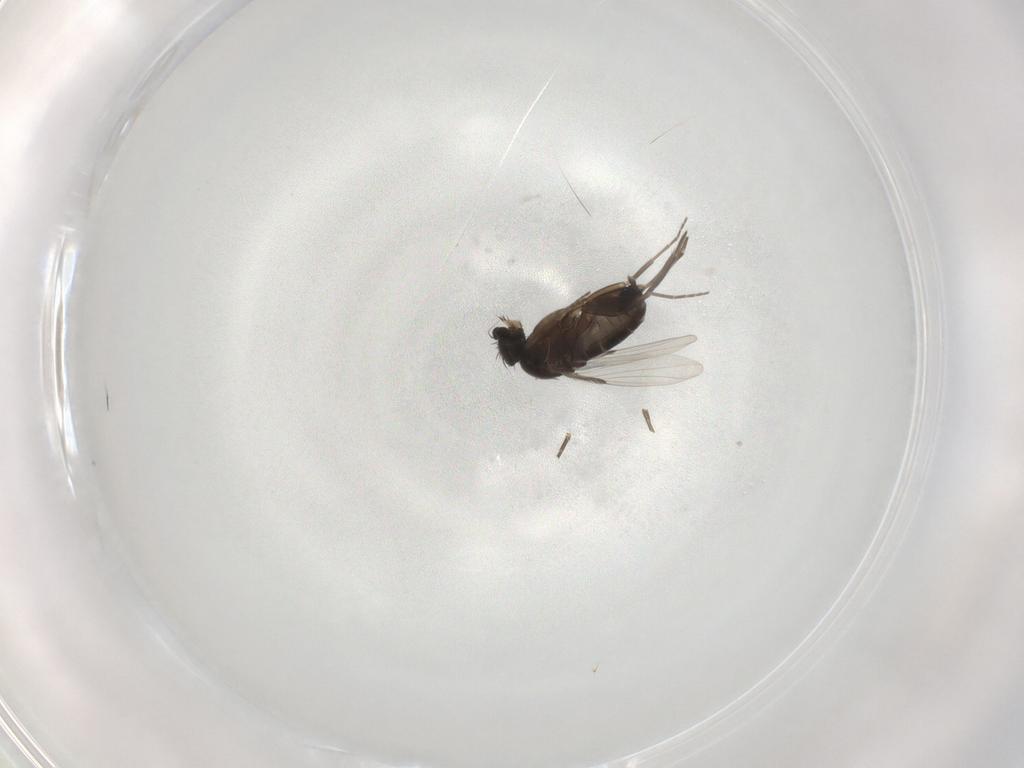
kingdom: Animalia
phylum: Arthropoda
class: Insecta
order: Diptera
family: Phoridae
